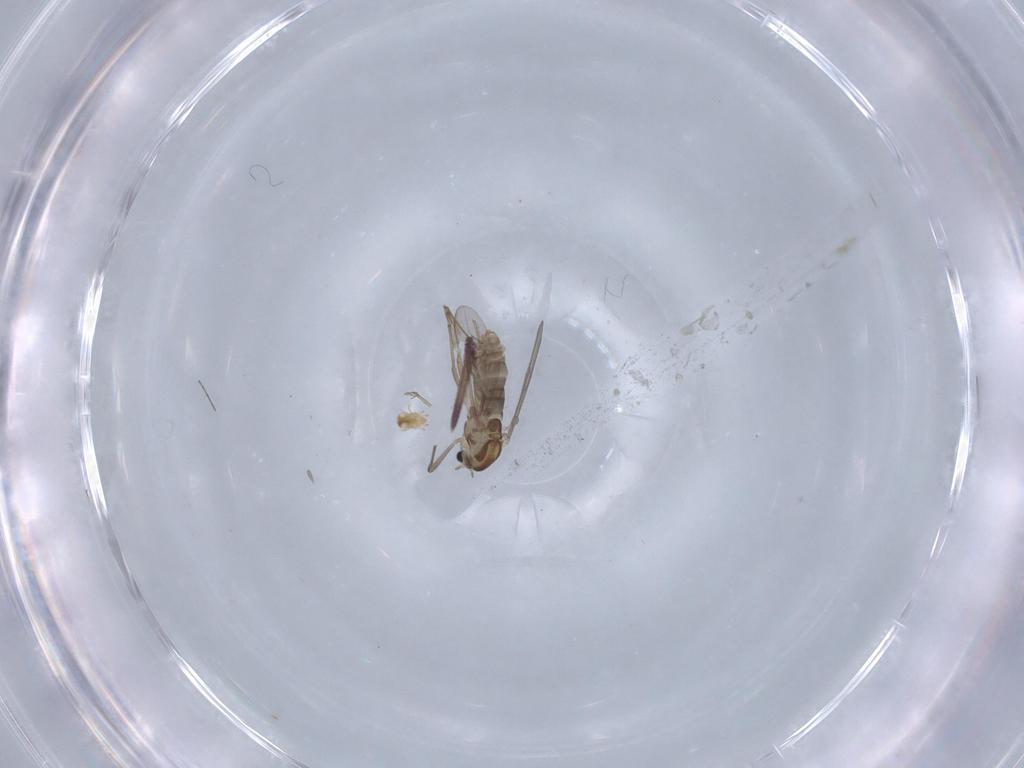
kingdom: Animalia
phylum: Arthropoda
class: Insecta
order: Diptera
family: Chironomidae
